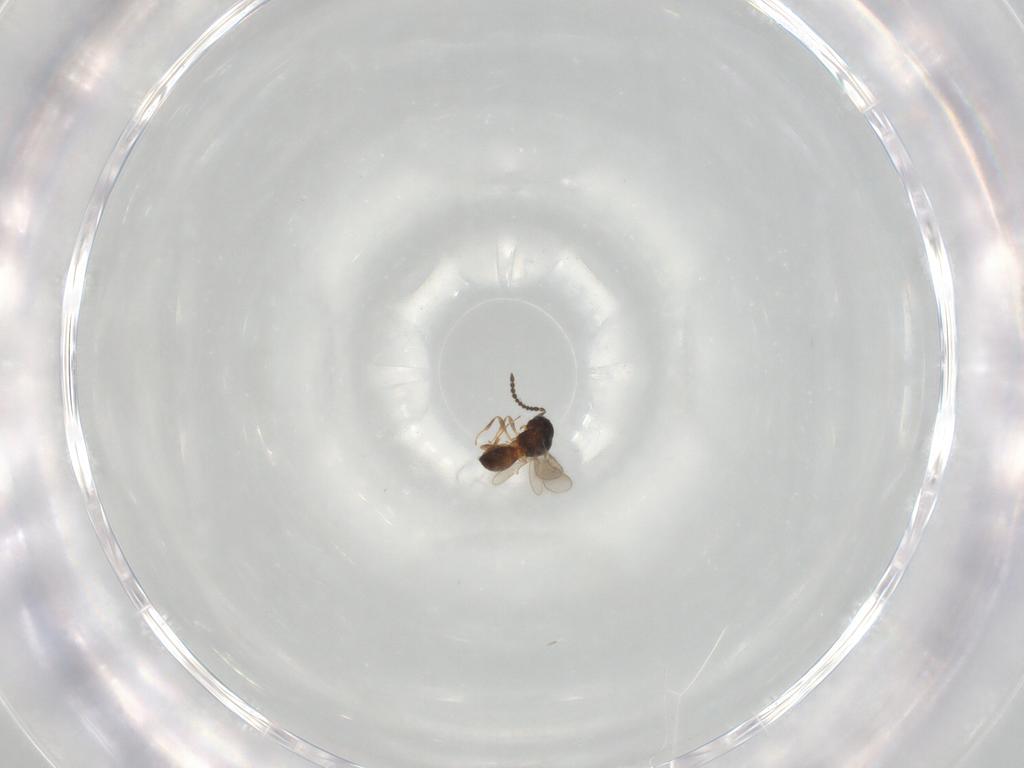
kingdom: Animalia
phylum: Arthropoda
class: Insecta
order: Hymenoptera
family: Scelionidae
